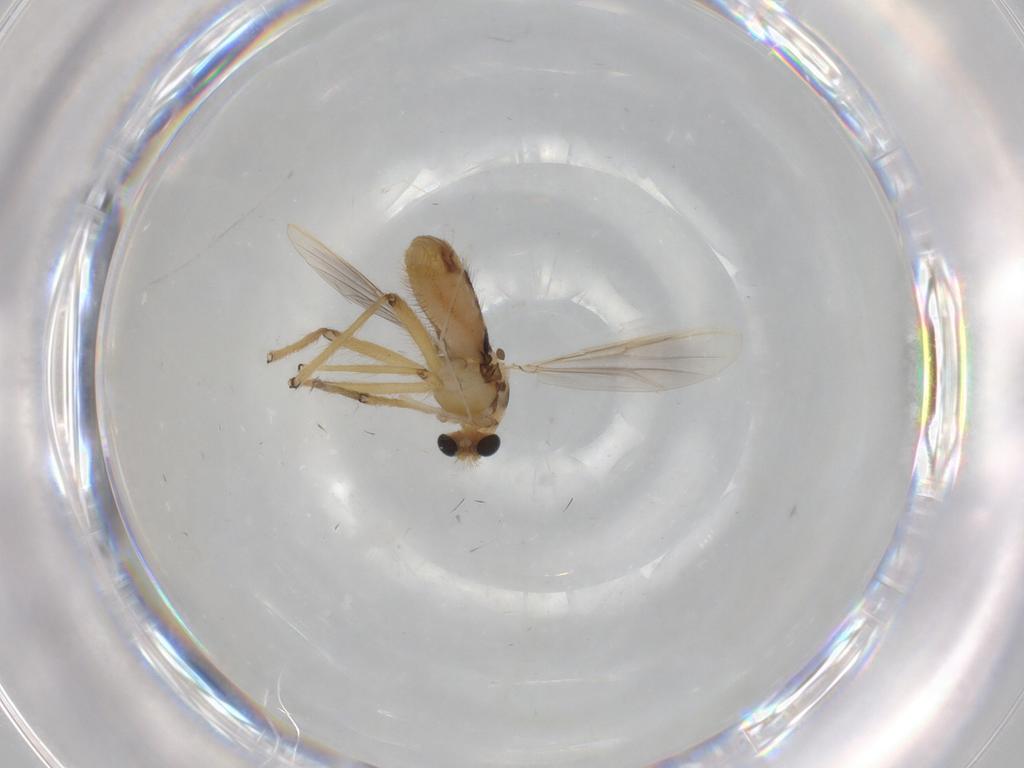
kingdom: Animalia
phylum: Arthropoda
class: Insecta
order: Diptera
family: Chironomidae
